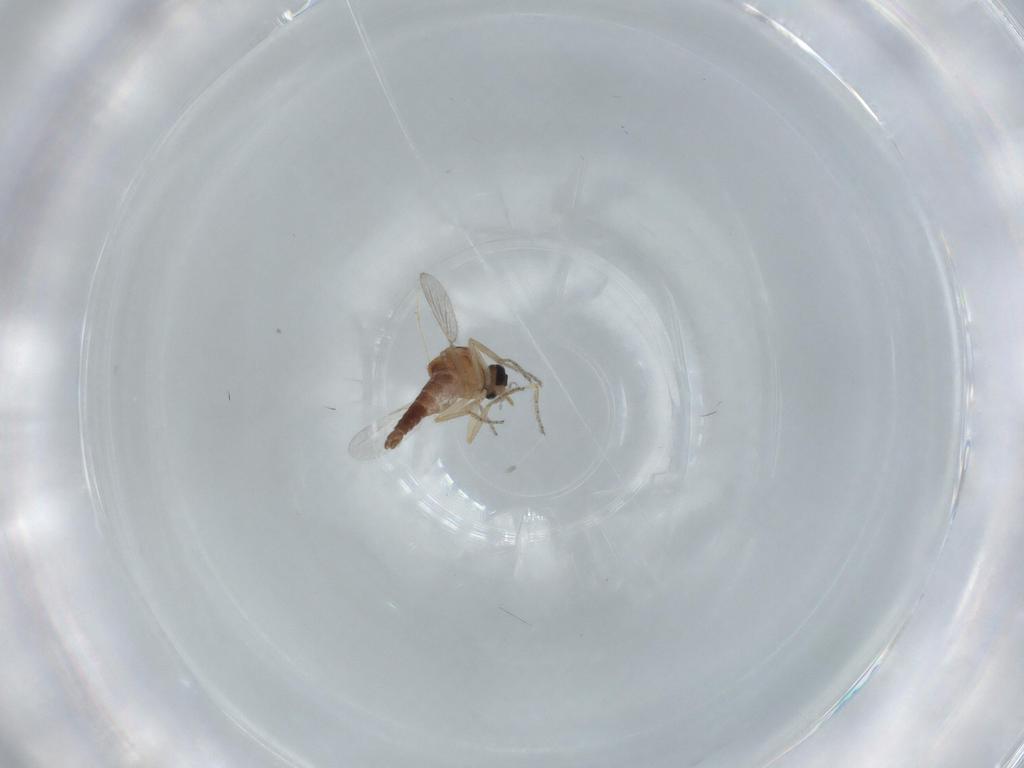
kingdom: Animalia
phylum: Arthropoda
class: Insecta
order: Diptera
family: Ceratopogonidae
